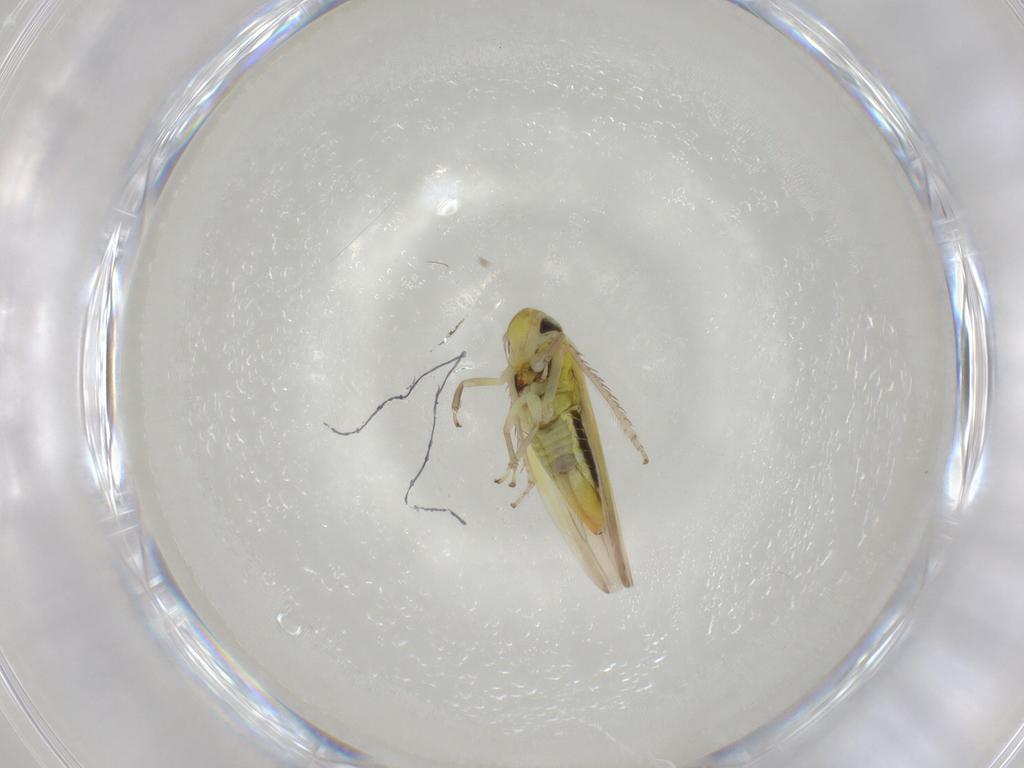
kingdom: Animalia
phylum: Arthropoda
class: Insecta
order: Hemiptera
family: Cicadellidae
